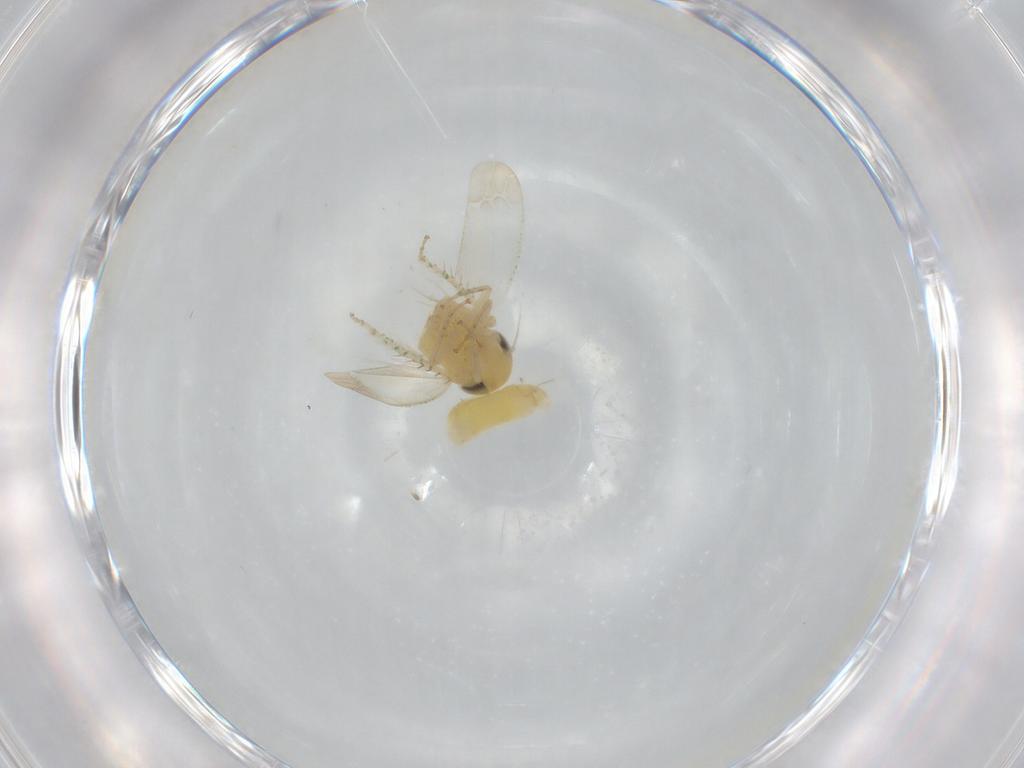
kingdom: Animalia
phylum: Arthropoda
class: Insecta
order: Hemiptera
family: Cicadellidae
